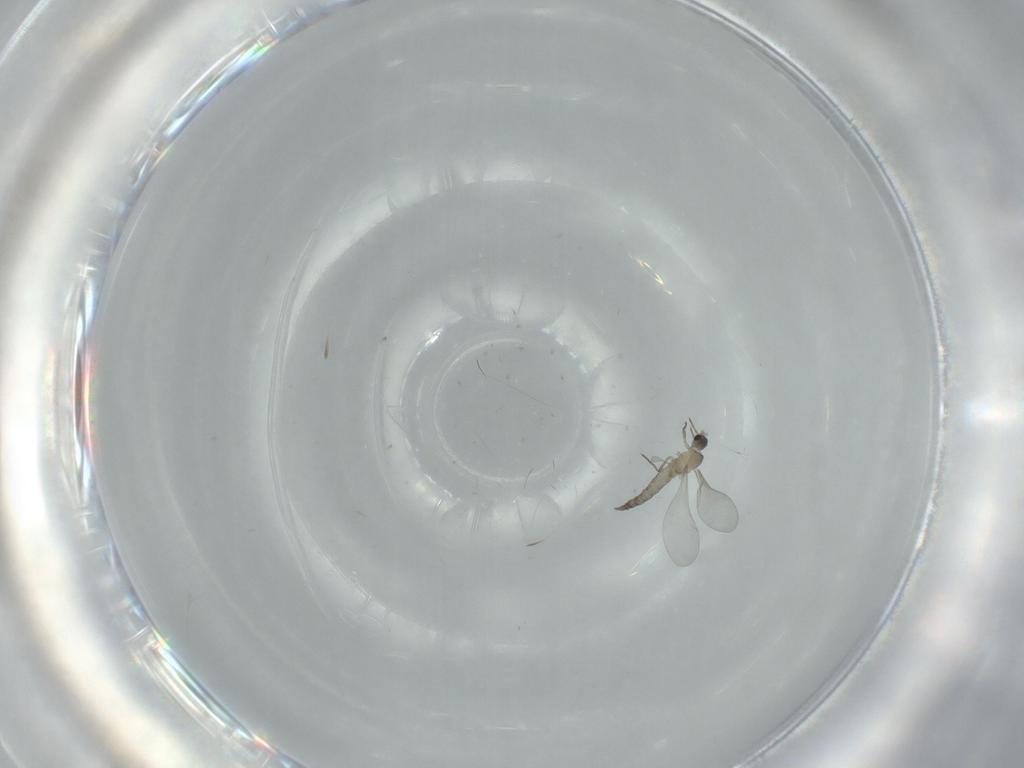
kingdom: Animalia
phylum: Arthropoda
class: Insecta
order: Diptera
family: Cecidomyiidae
